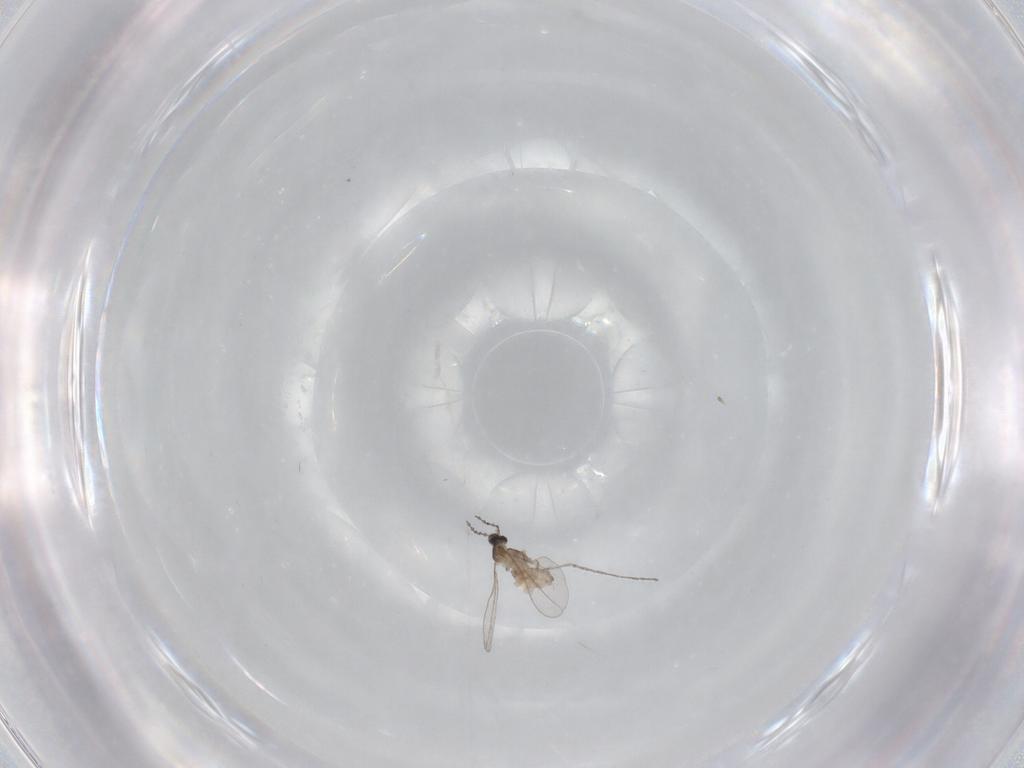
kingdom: Animalia
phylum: Arthropoda
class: Insecta
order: Diptera
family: Cecidomyiidae
